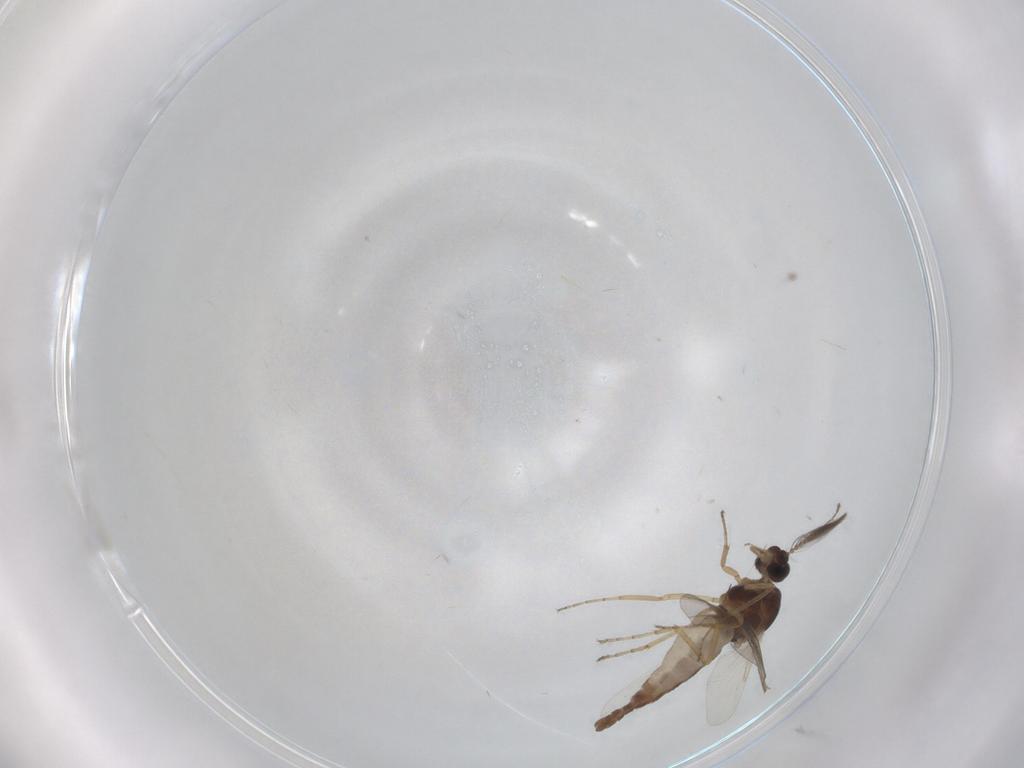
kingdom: Animalia
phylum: Arthropoda
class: Insecta
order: Diptera
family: Ceratopogonidae
